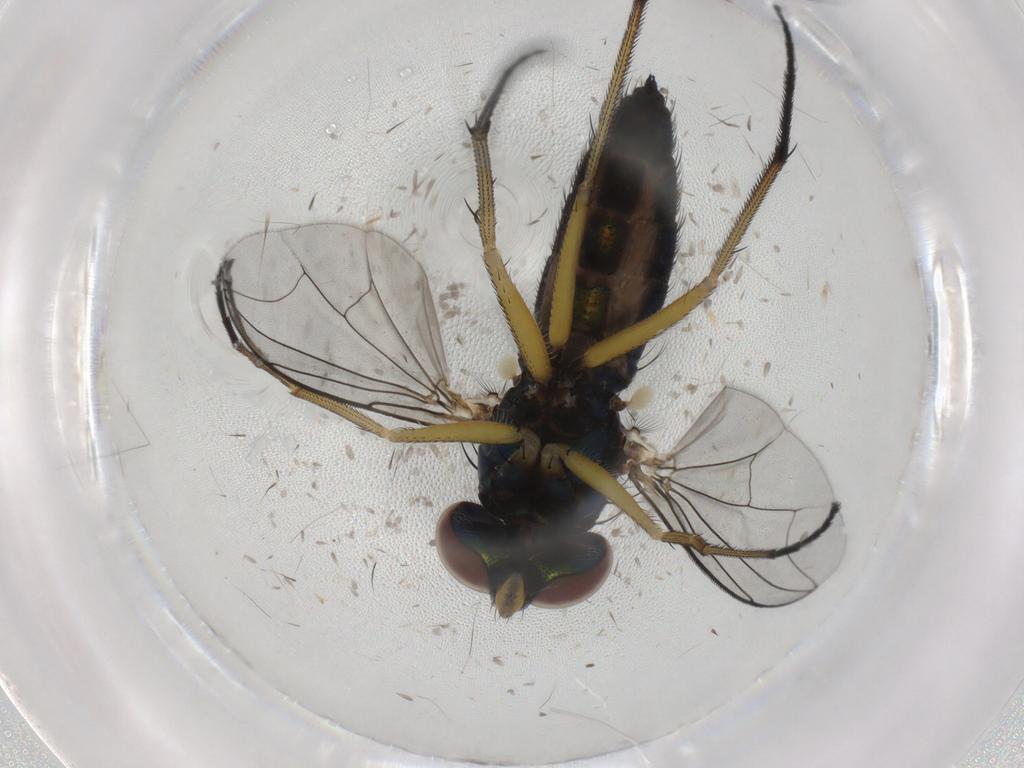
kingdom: Animalia
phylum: Arthropoda
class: Insecta
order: Diptera
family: Dolichopodidae
